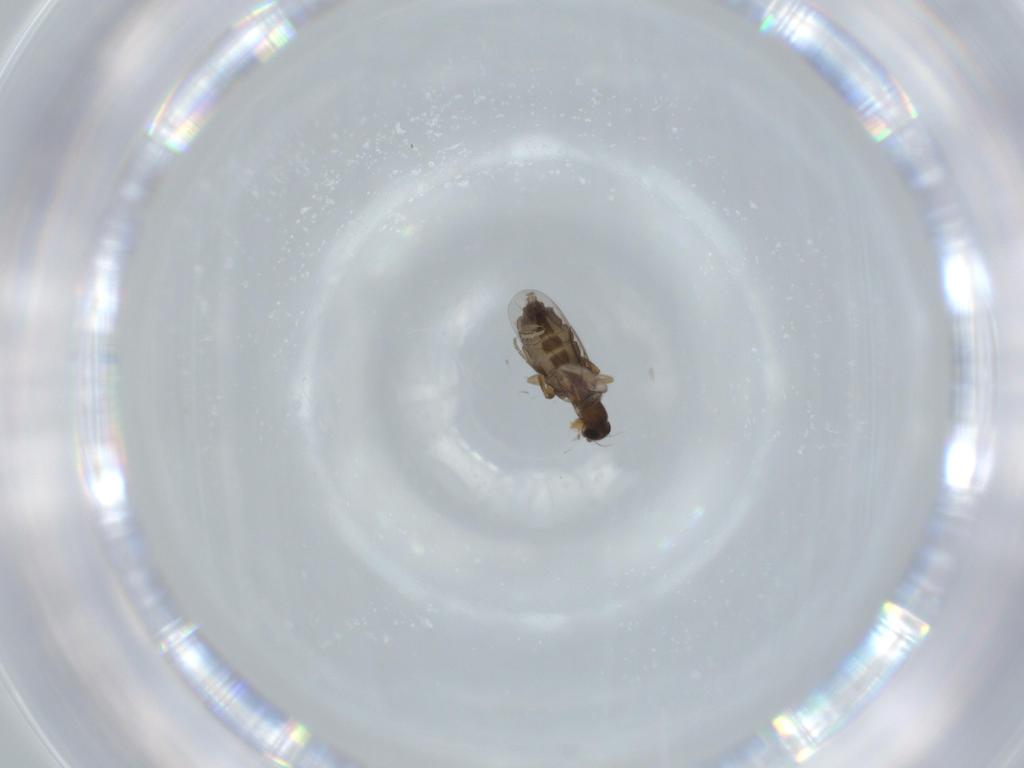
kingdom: Animalia
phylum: Arthropoda
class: Insecta
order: Diptera
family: Phoridae
